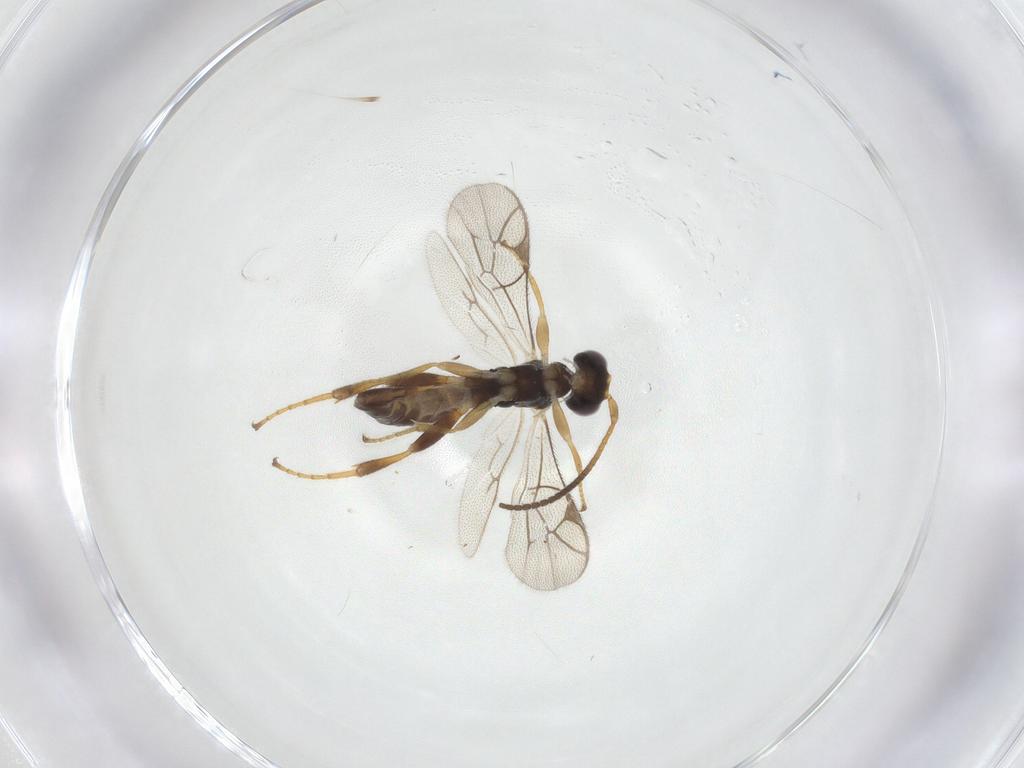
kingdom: Animalia
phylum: Arthropoda
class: Insecta
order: Hymenoptera
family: Ichneumonidae
